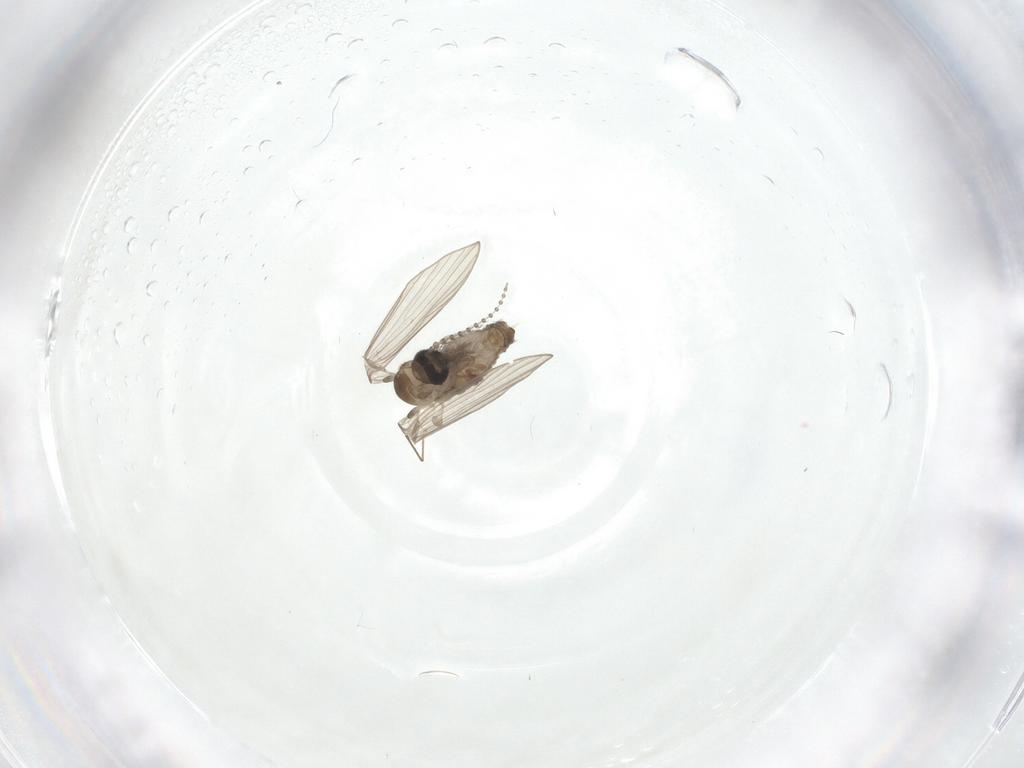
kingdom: Animalia
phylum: Arthropoda
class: Insecta
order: Diptera
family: Psychodidae
